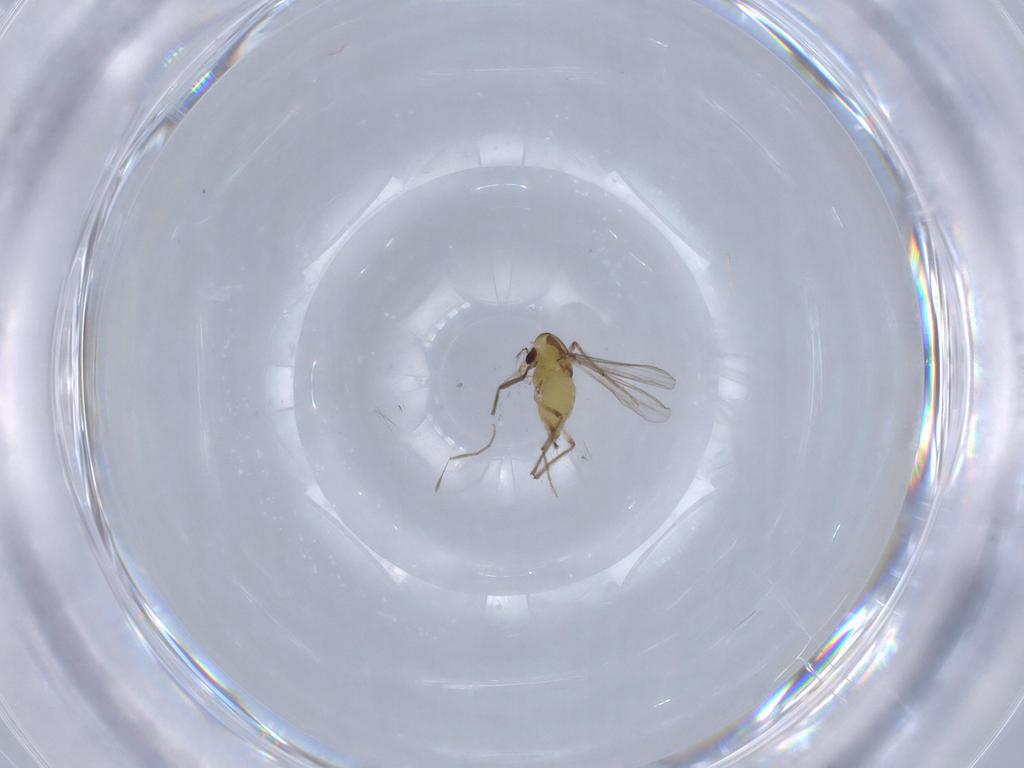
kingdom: Animalia
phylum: Arthropoda
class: Insecta
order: Diptera
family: Chironomidae
